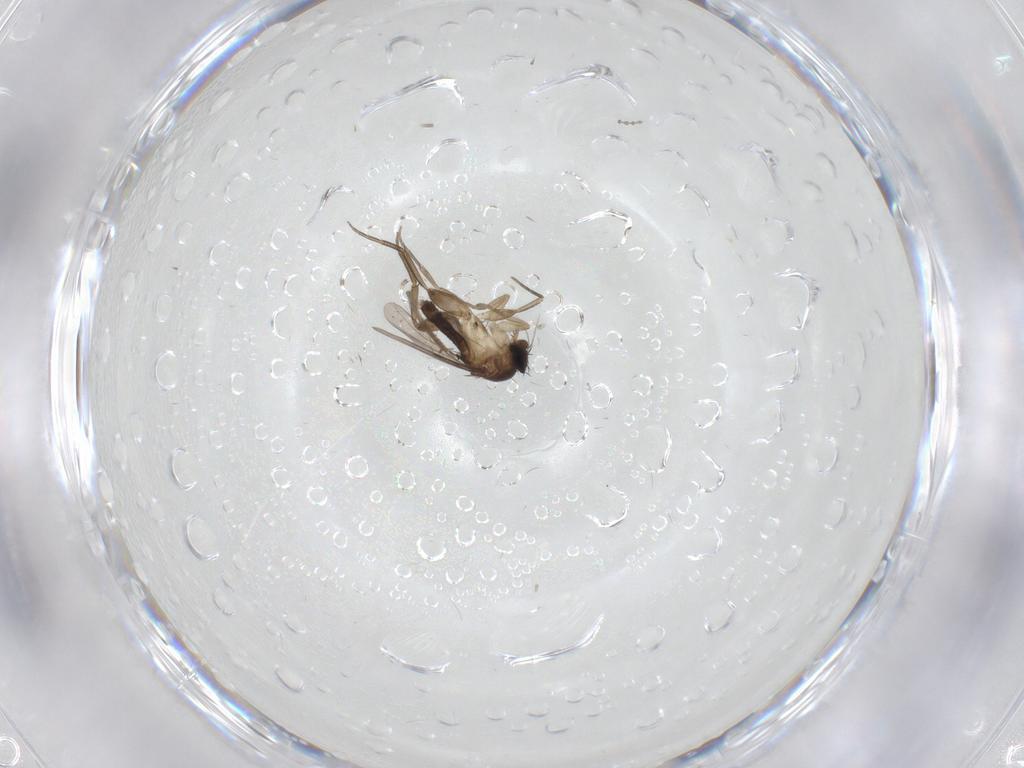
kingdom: Animalia
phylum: Arthropoda
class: Insecta
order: Diptera
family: Phoridae
